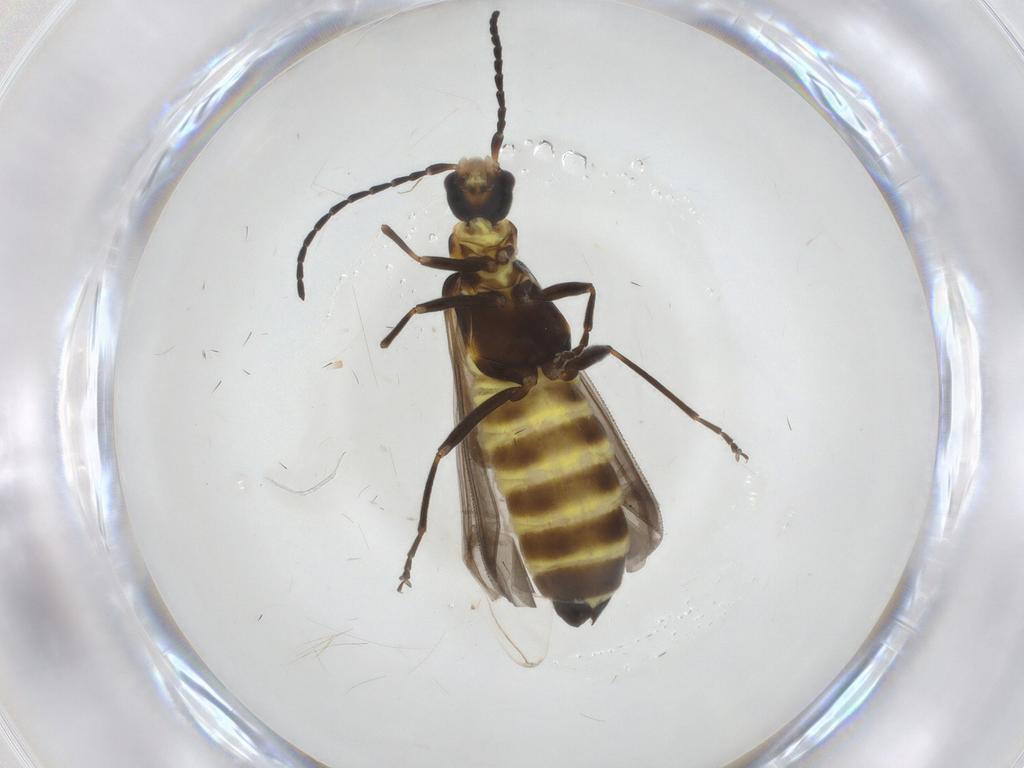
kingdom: Animalia
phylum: Arthropoda
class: Insecta
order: Coleoptera
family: Cantharidae
